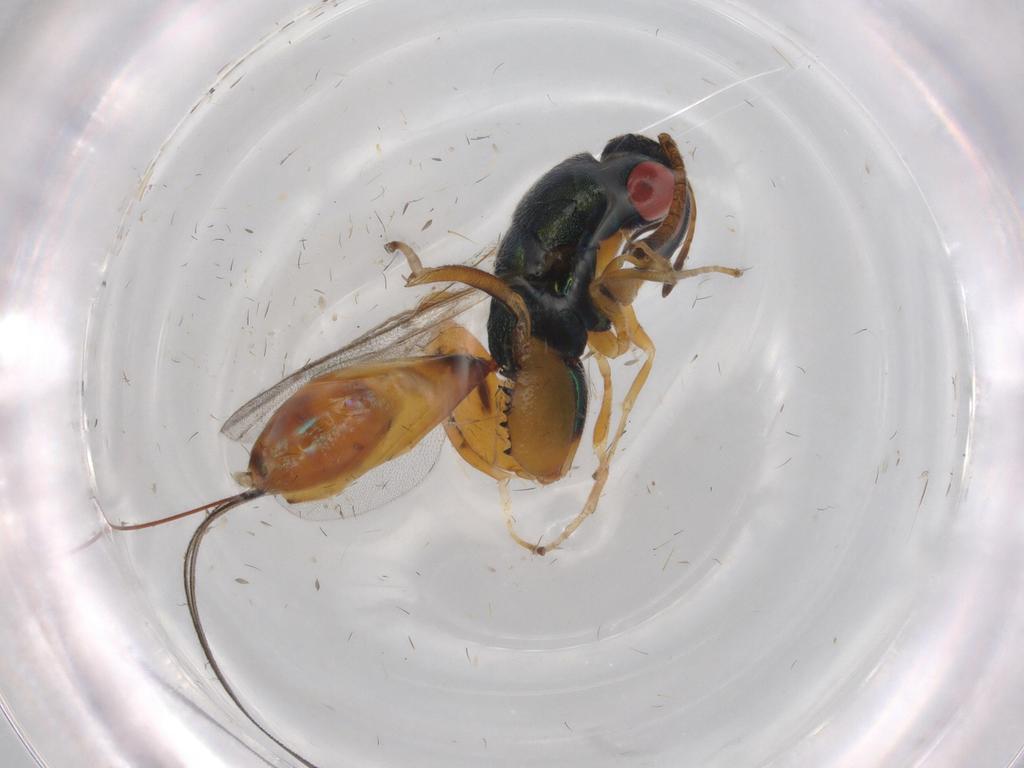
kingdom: Animalia
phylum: Arthropoda
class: Insecta
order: Hymenoptera
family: Torymidae
